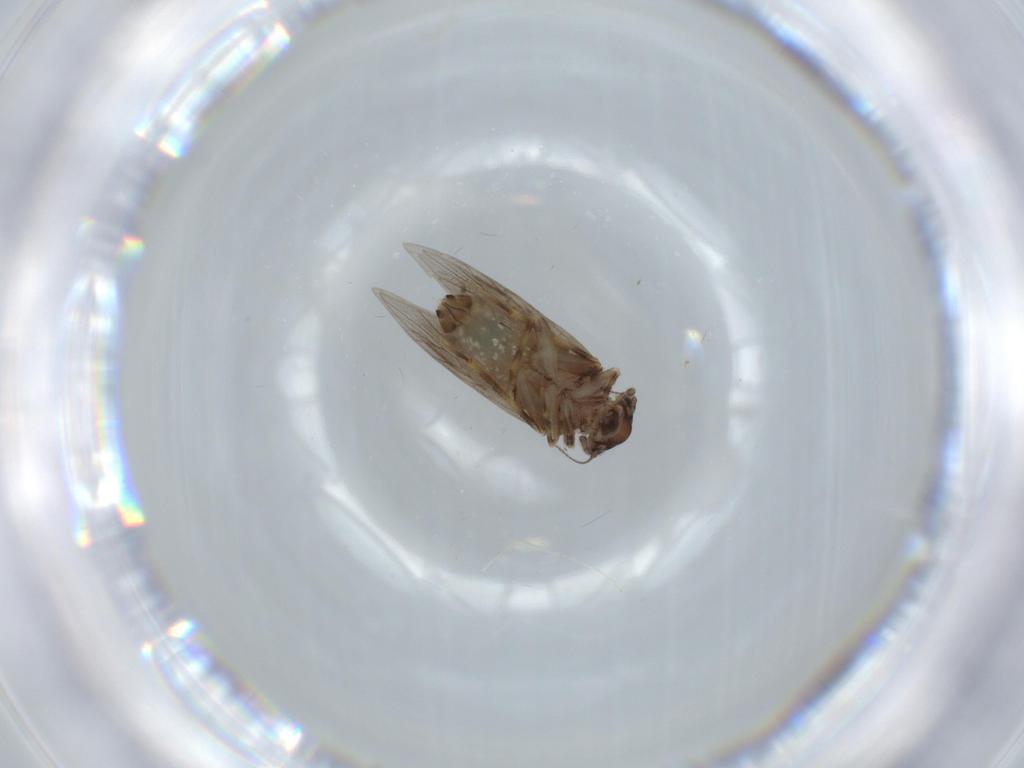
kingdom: Animalia
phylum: Arthropoda
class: Insecta
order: Psocodea
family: Lepidopsocidae
